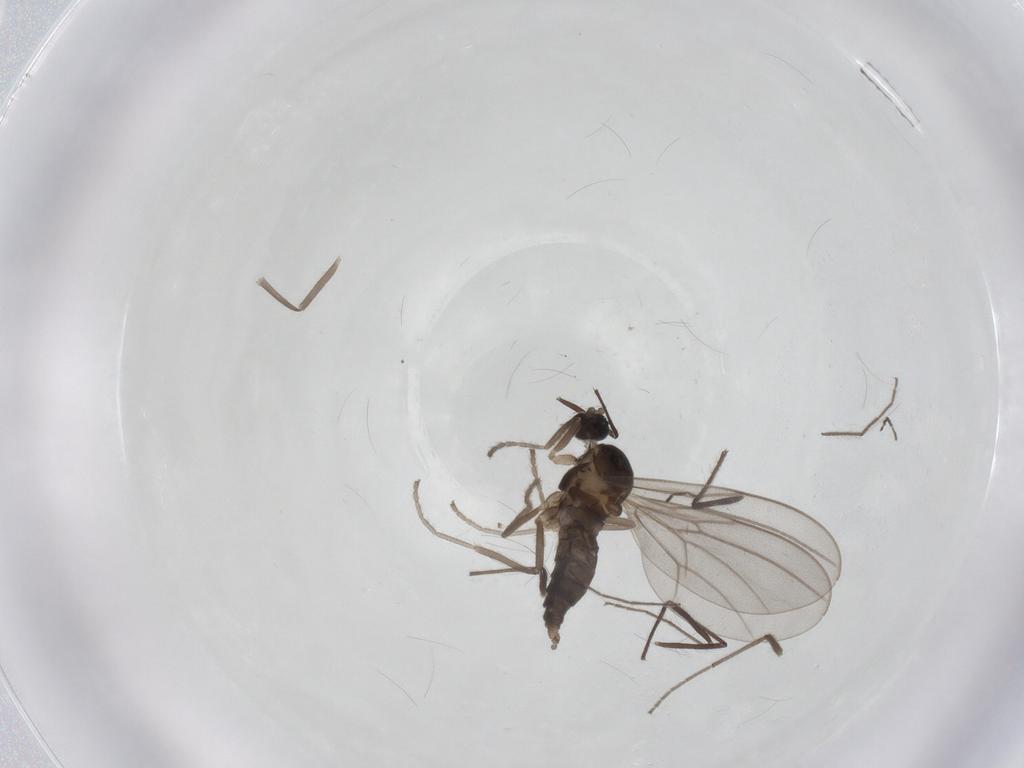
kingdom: Animalia
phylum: Arthropoda
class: Insecta
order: Diptera
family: Cecidomyiidae
